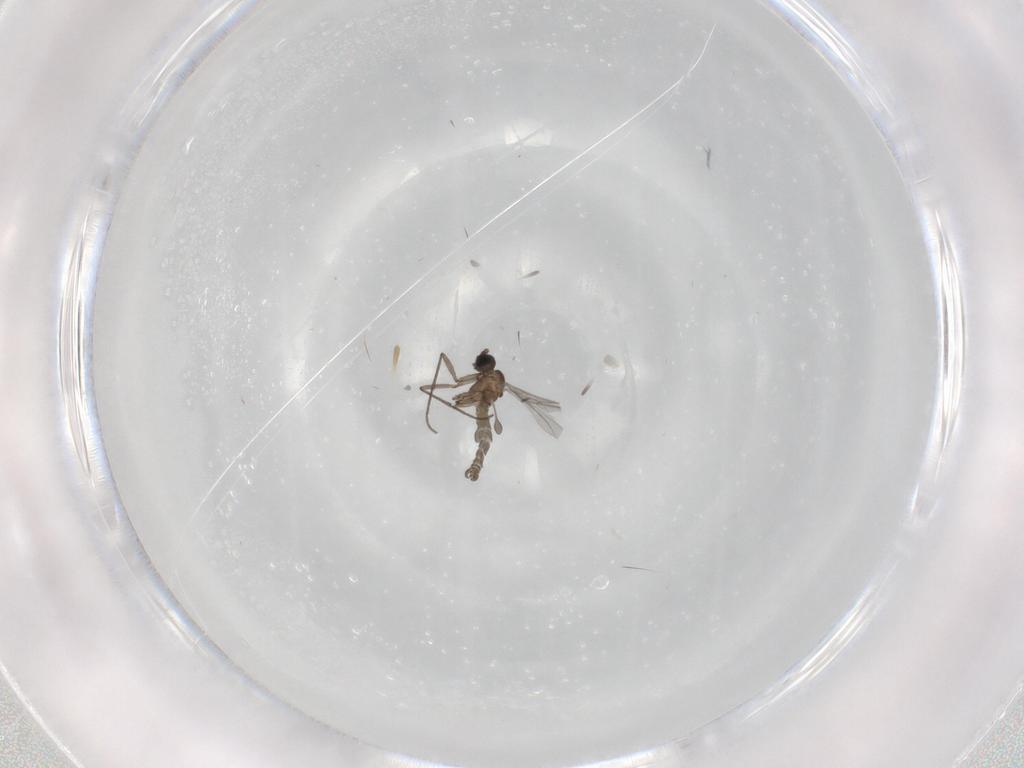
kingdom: Animalia
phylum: Arthropoda
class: Insecta
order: Diptera
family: Sciaridae
